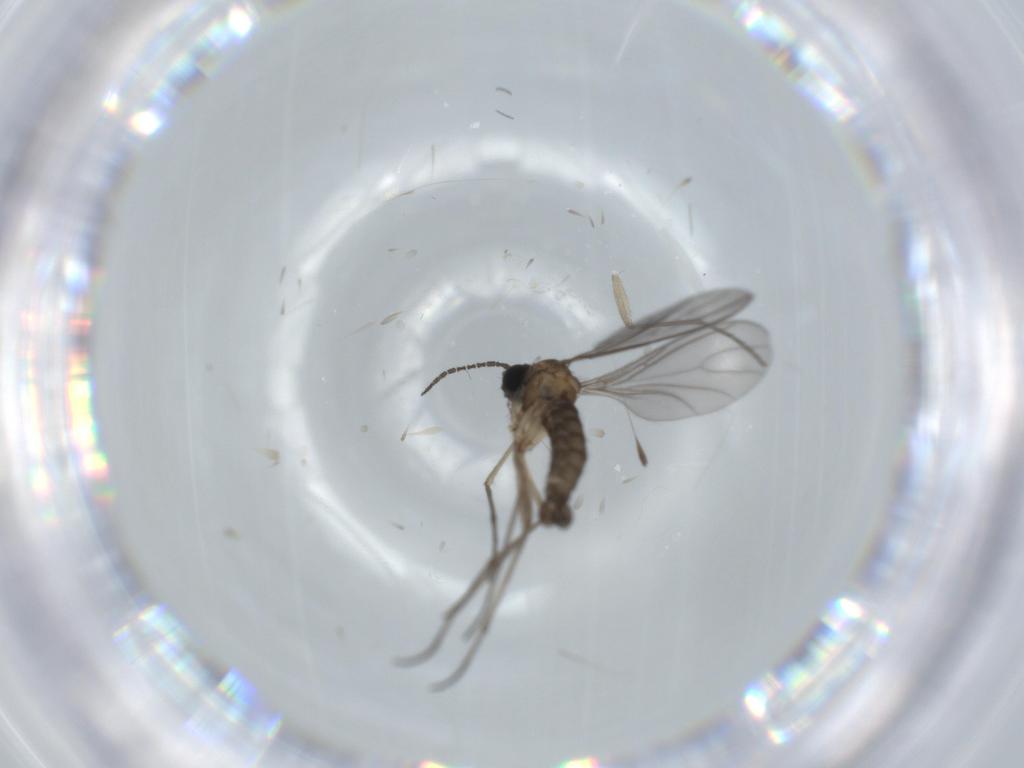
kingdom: Animalia
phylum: Arthropoda
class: Insecta
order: Diptera
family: Sciaridae
